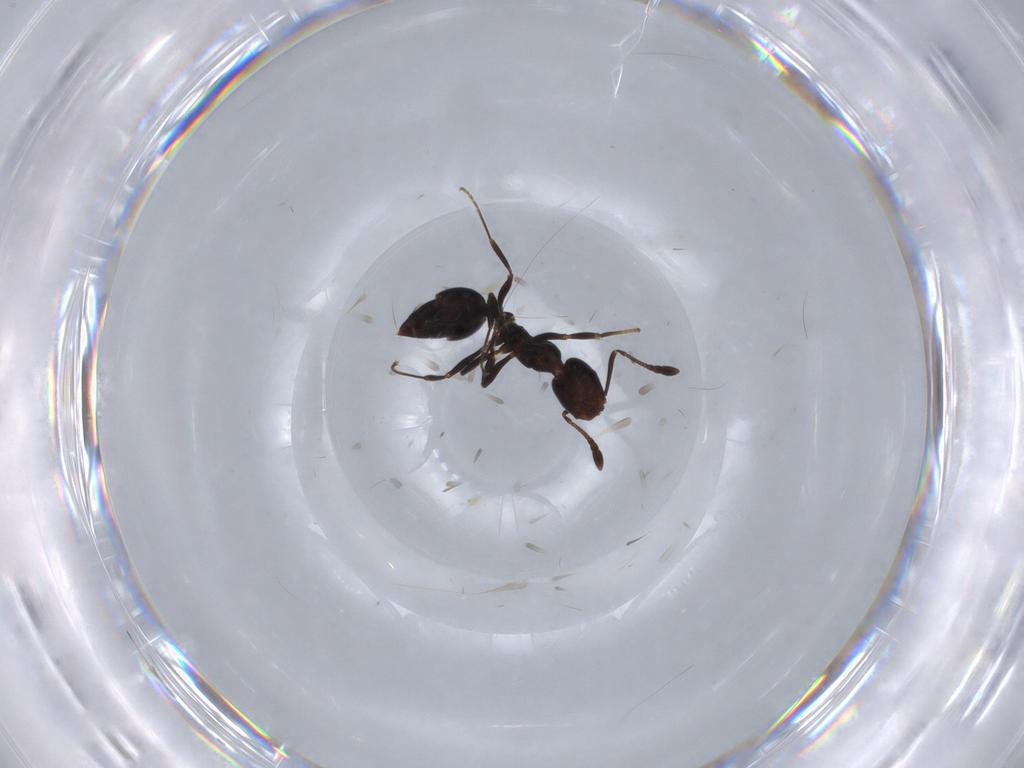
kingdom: Animalia
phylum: Arthropoda
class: Insecta
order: Hymenoptera
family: Formicidae
